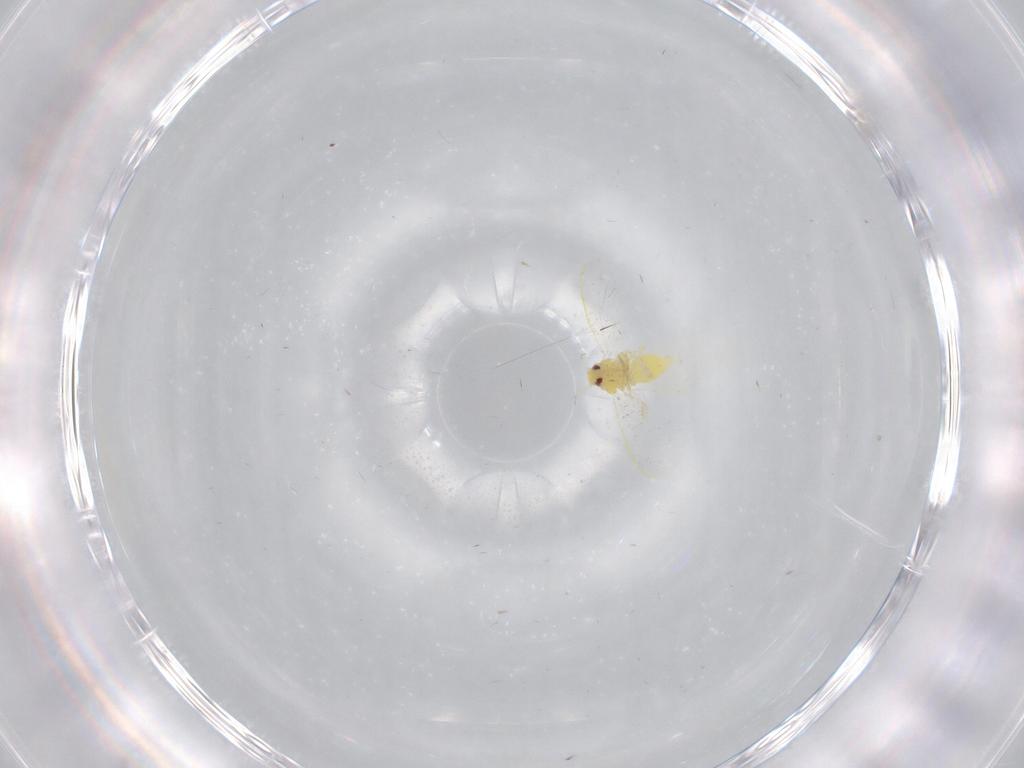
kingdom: Animalia
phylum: Arthropoda
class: Insecta
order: Hemiptera
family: Aleyrodidae
